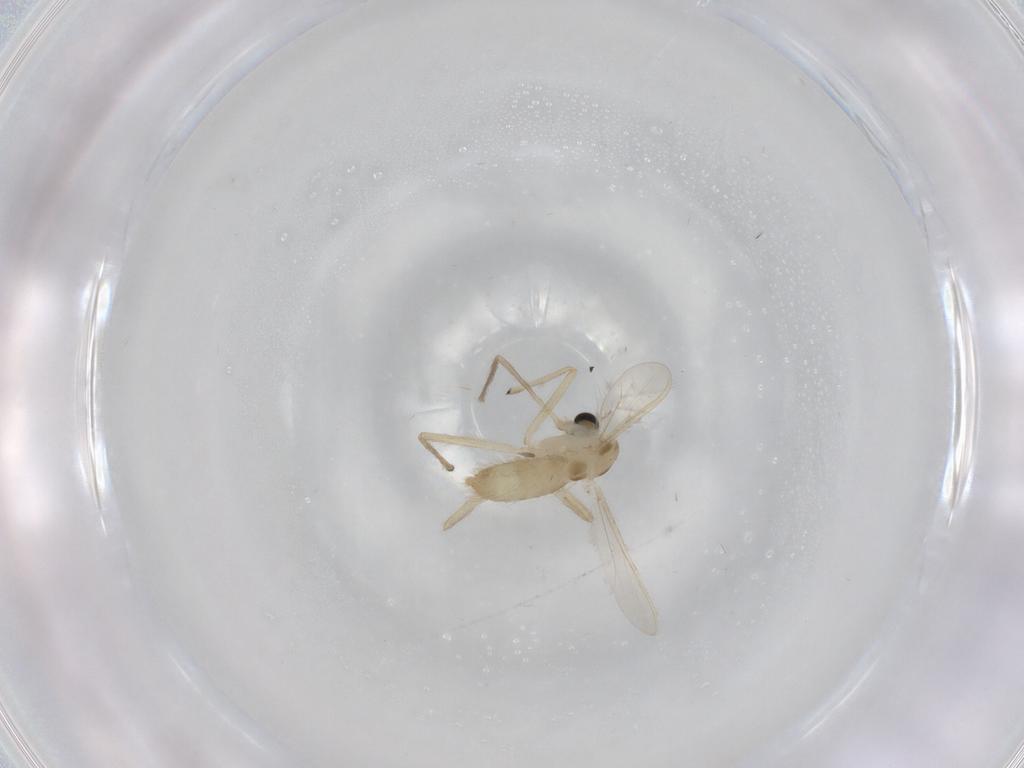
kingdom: Animalia
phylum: Arthropoda
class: Insecta
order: Diptera
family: Chironomidae
